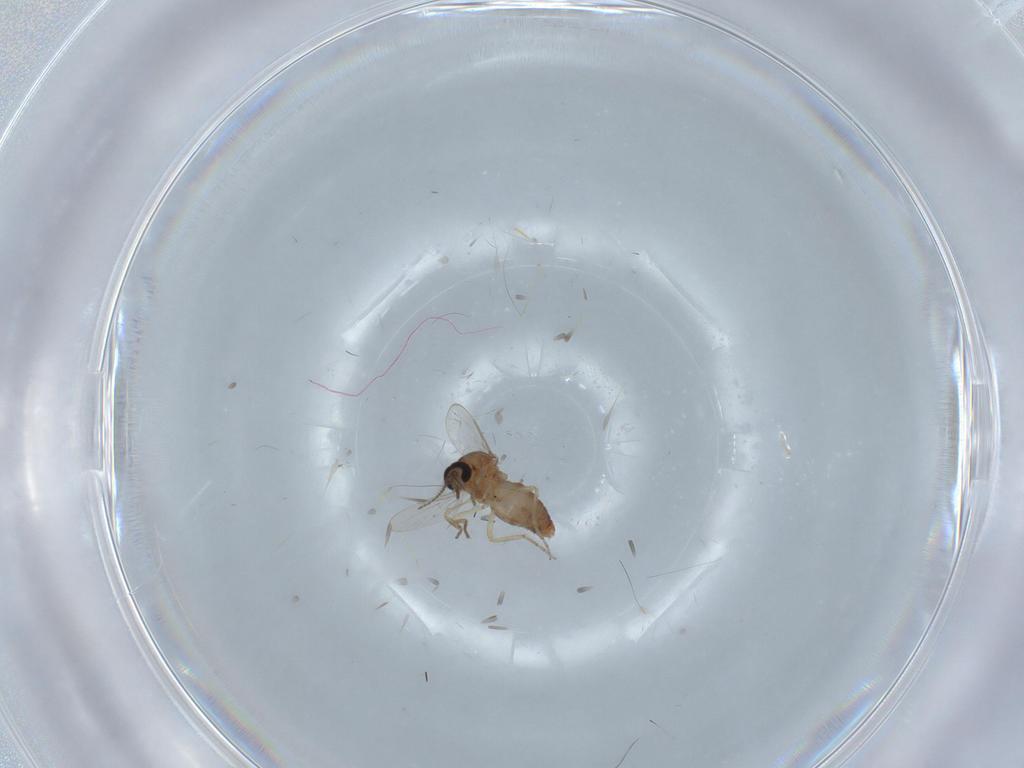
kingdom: Animalia
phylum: Arthropoda
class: Insecta
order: Diptera
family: Ceratopogonidae
